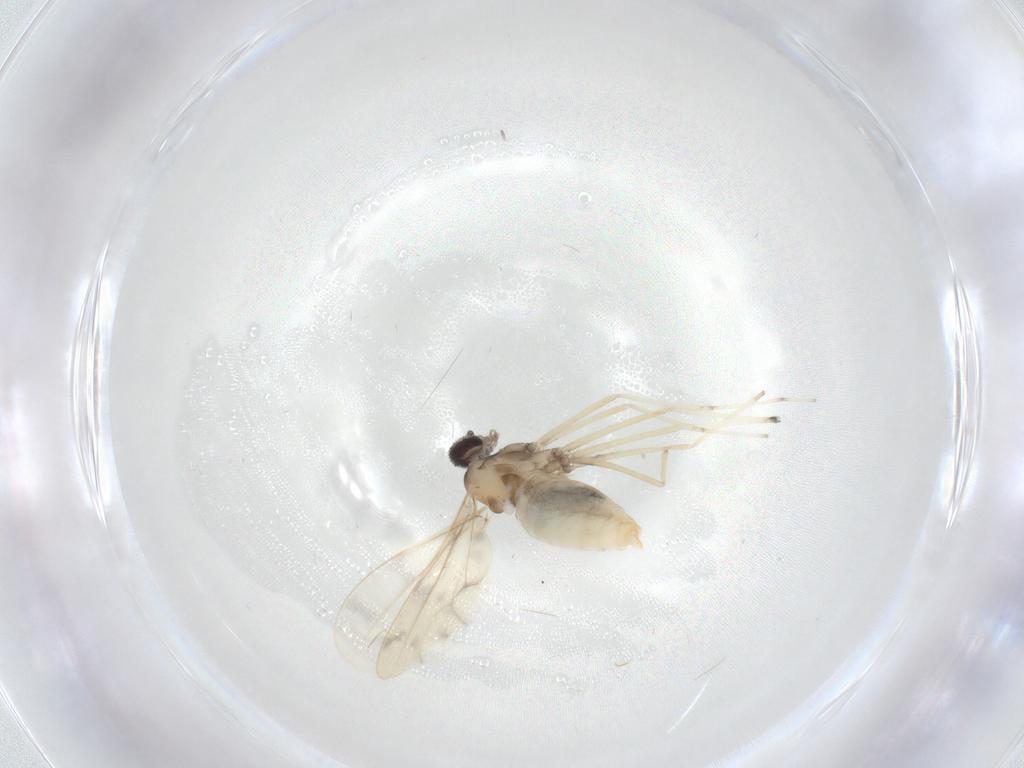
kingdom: Animalia
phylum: Arthropoda
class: Insecta
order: Diptera
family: Cecidomyiidae
